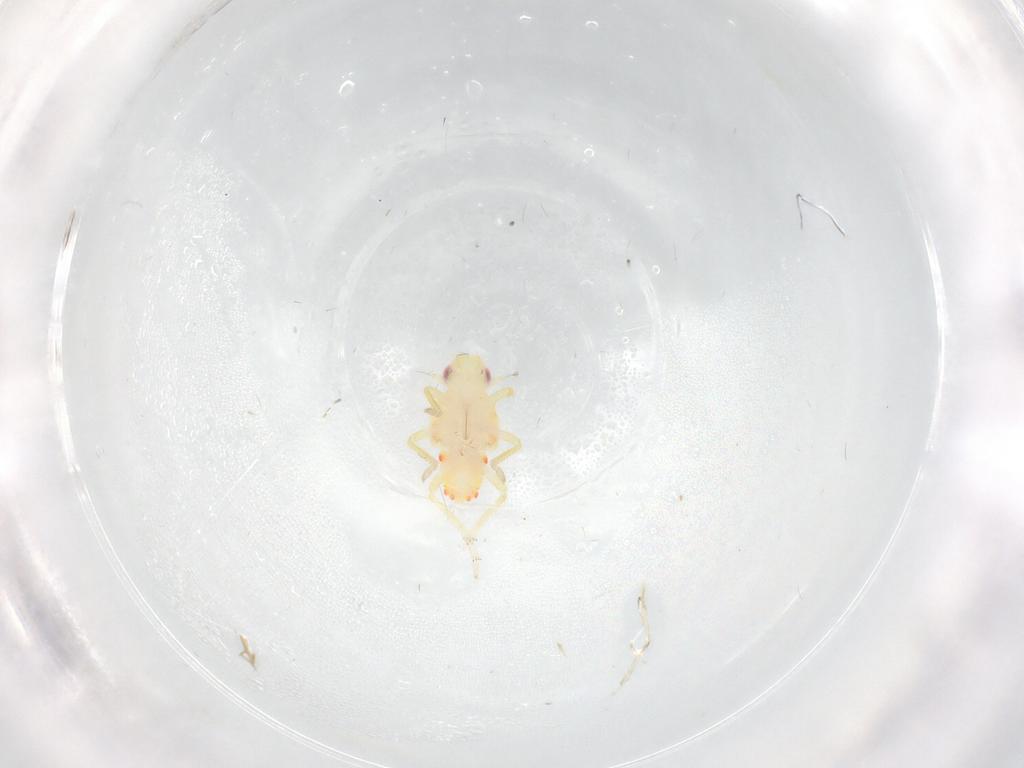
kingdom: Animalia
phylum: Arthropoda
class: Insecta
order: Hemiptera
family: Tropiduchidae
